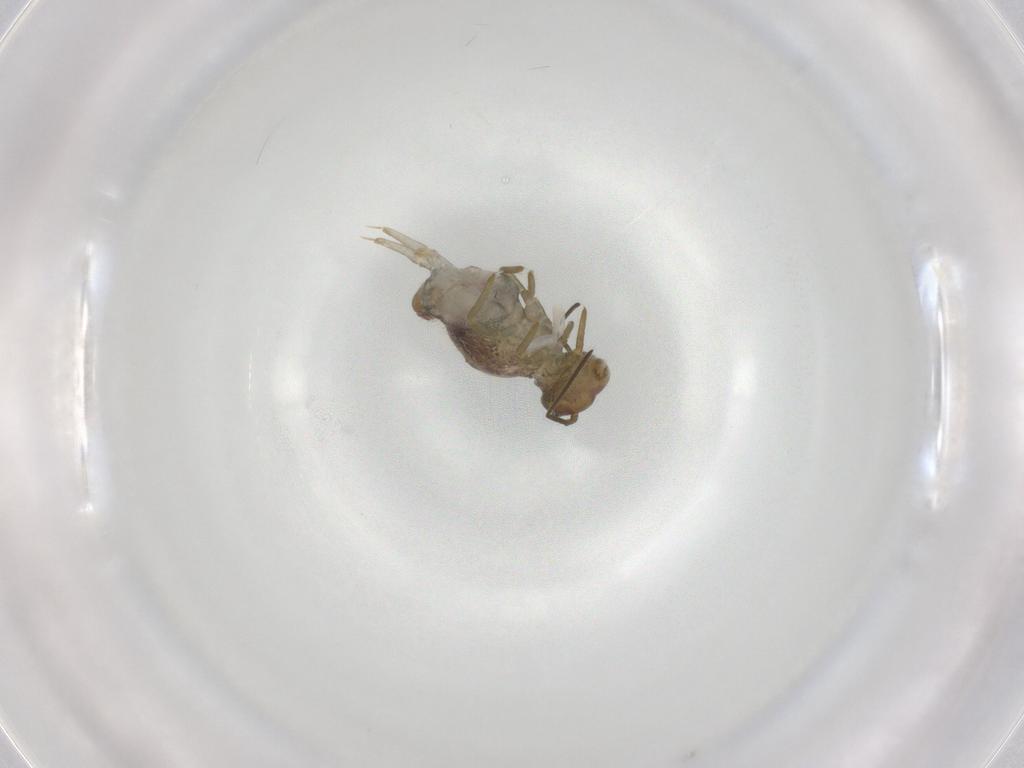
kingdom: Animalia
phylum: Arthropoda
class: Collembola
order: Symphypleona
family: Sminthuridae
